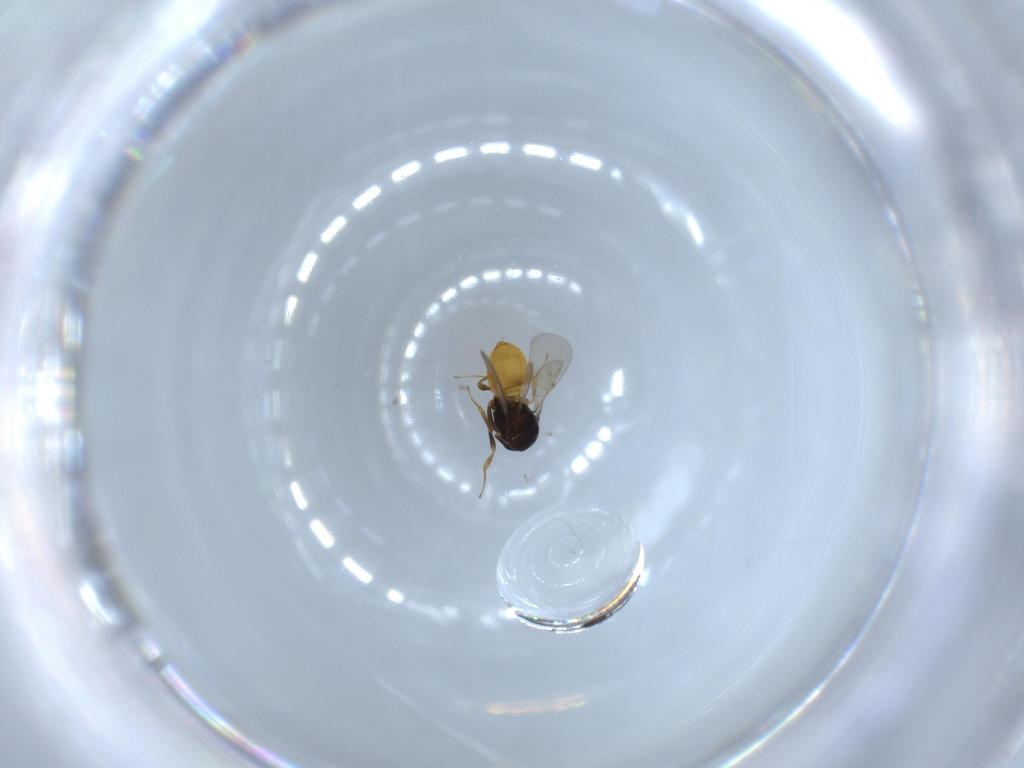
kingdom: Animalia
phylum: Arthropoda
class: Insecta
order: Hymenoptera
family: Scelionidae
